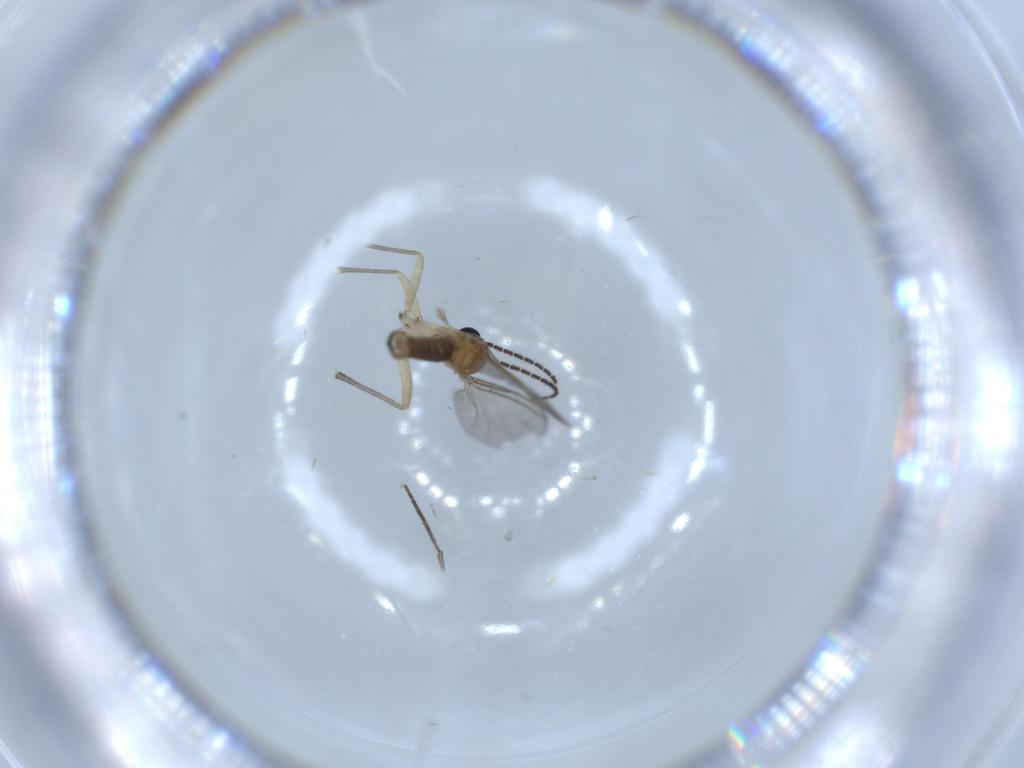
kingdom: Animalia
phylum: Arthropoda
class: Insecta
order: Diptera
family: Sciaridae
